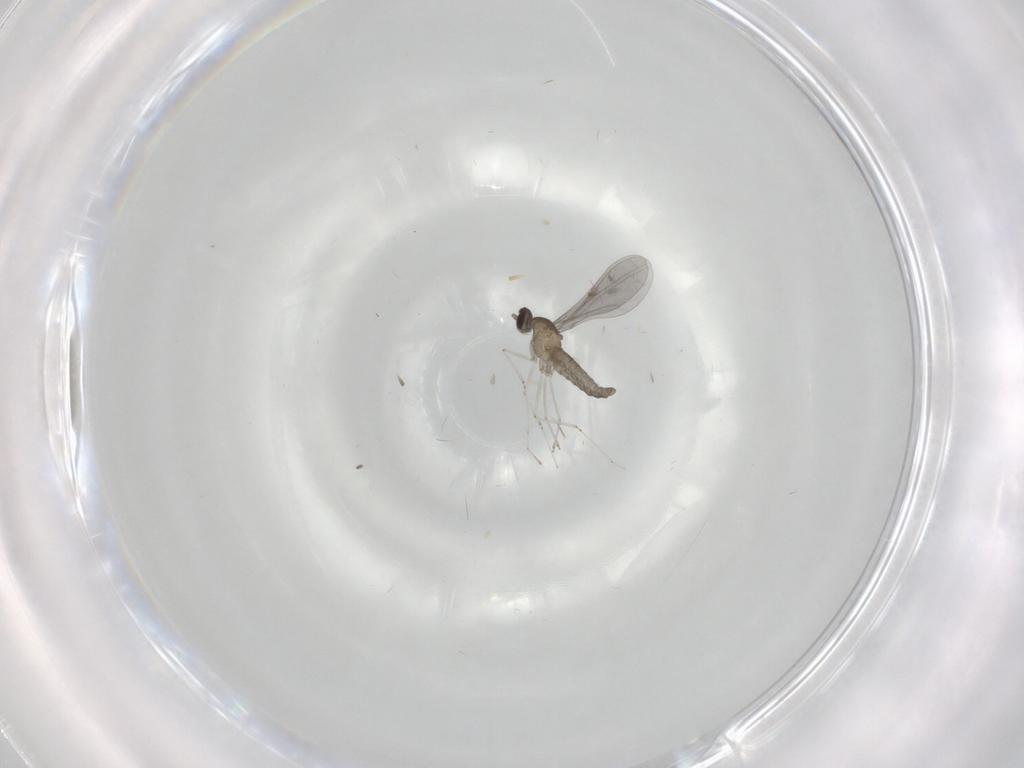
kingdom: Animalia
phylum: Arthropoda
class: Insecta
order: Diptera
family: Cecidomyiidae
